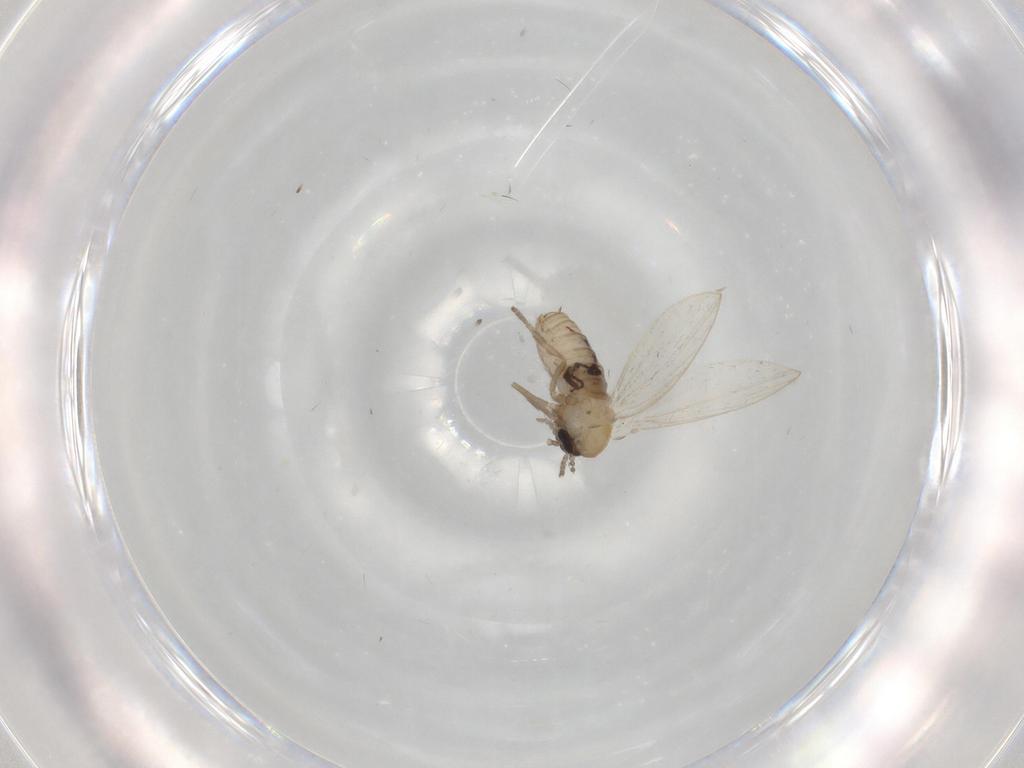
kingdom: Animalia
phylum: Arthropoda
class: Insecta
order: Diptera
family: Psychodidae
